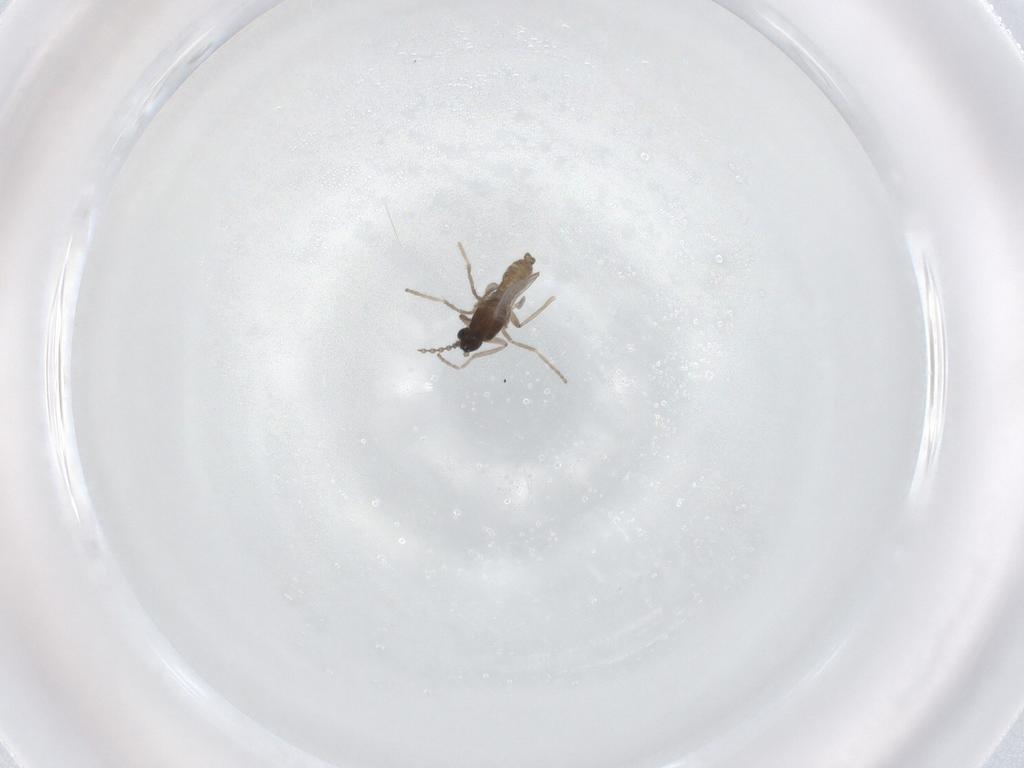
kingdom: Animalia
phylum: Arthropoda
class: Insecta
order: Diptera
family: Cecidomyiidae
